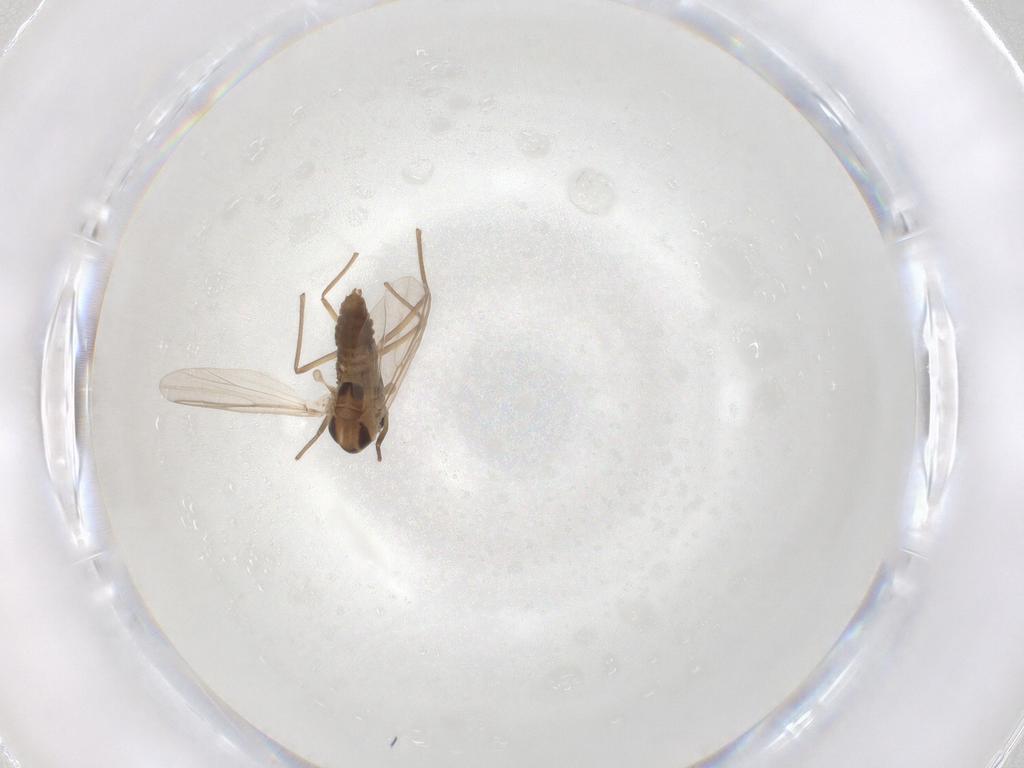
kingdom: Animalia
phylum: Arthropoda
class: Insecta
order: Diptera
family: Chironomidae
